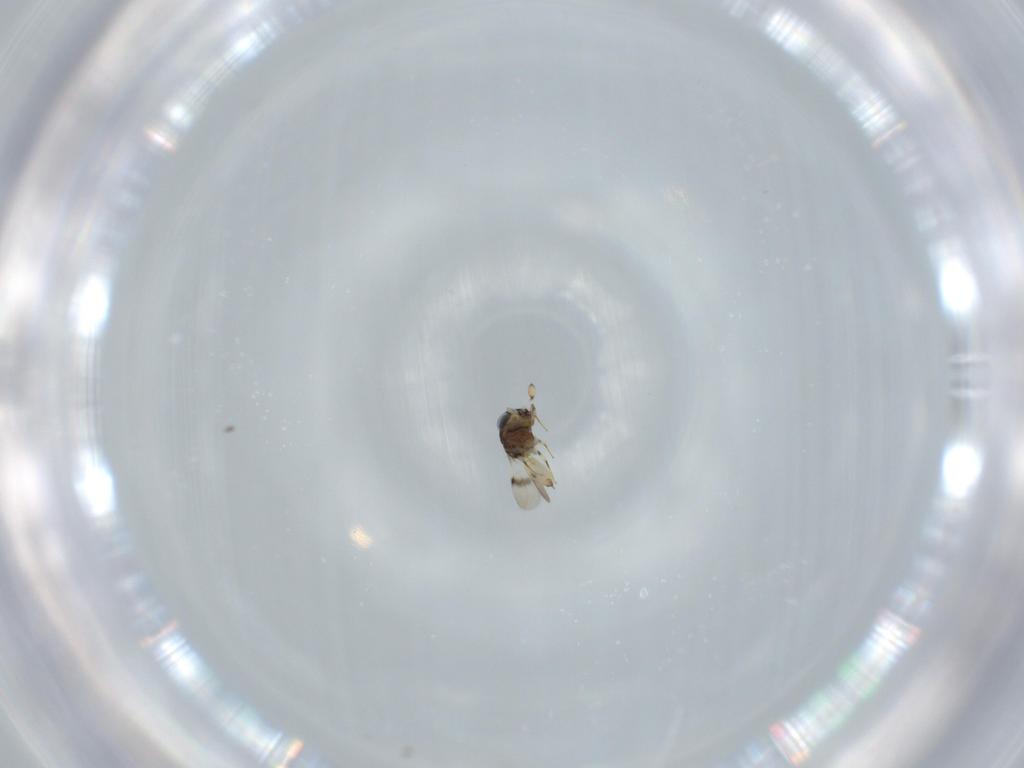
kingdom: Animalia
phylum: Arthropoda
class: Insecta
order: Hymenoptera
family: Scelionidae
